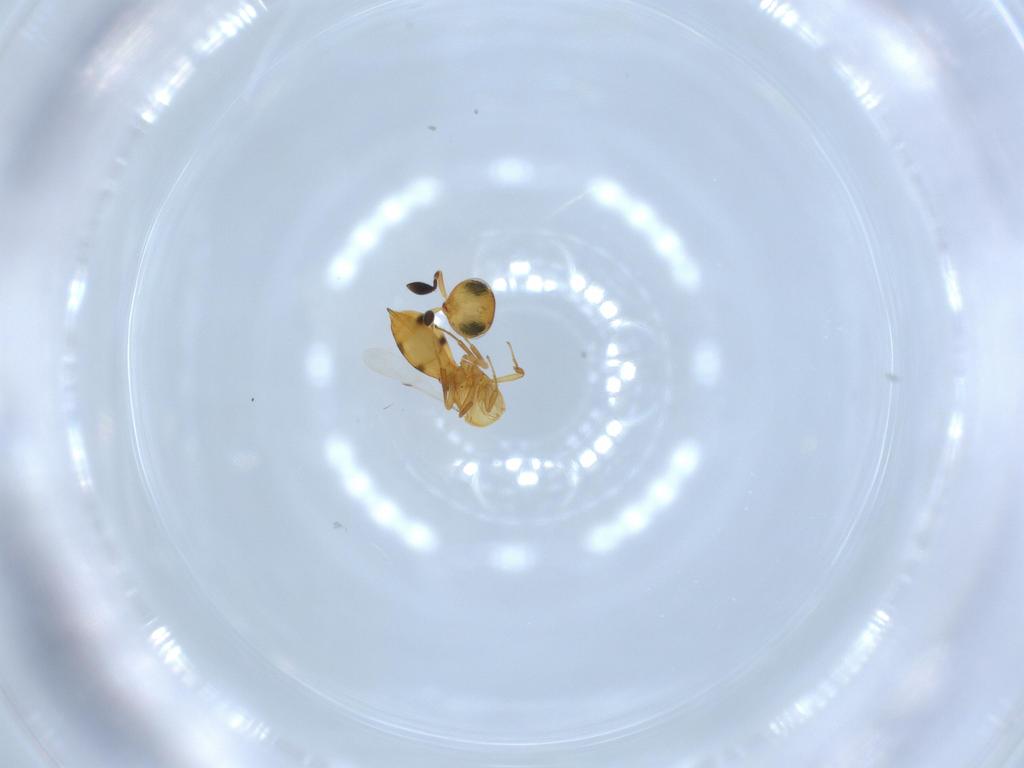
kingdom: Animalia
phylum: Arthropoda
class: Insecta
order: Hymenoptera
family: Scelionidae
